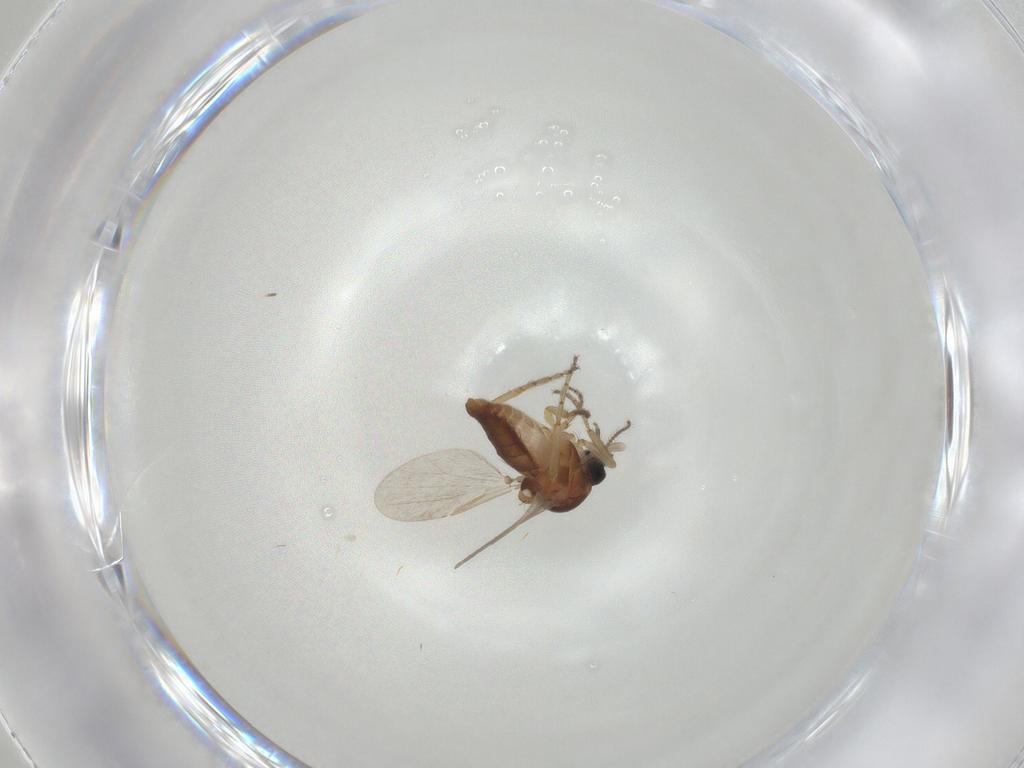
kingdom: Animalia
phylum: Arthropoda
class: Insecta
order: Diptera
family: Ceratopogonidae
